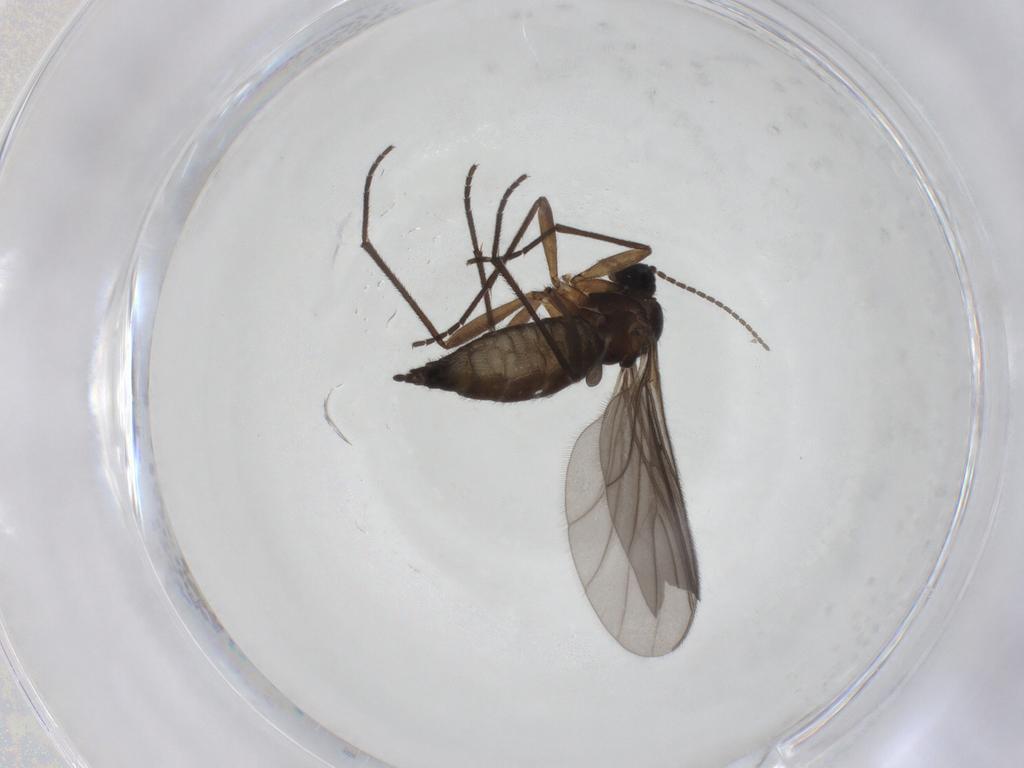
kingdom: Animalia
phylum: Arthropoda
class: Insecta
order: Diptera
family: Sciaridae
